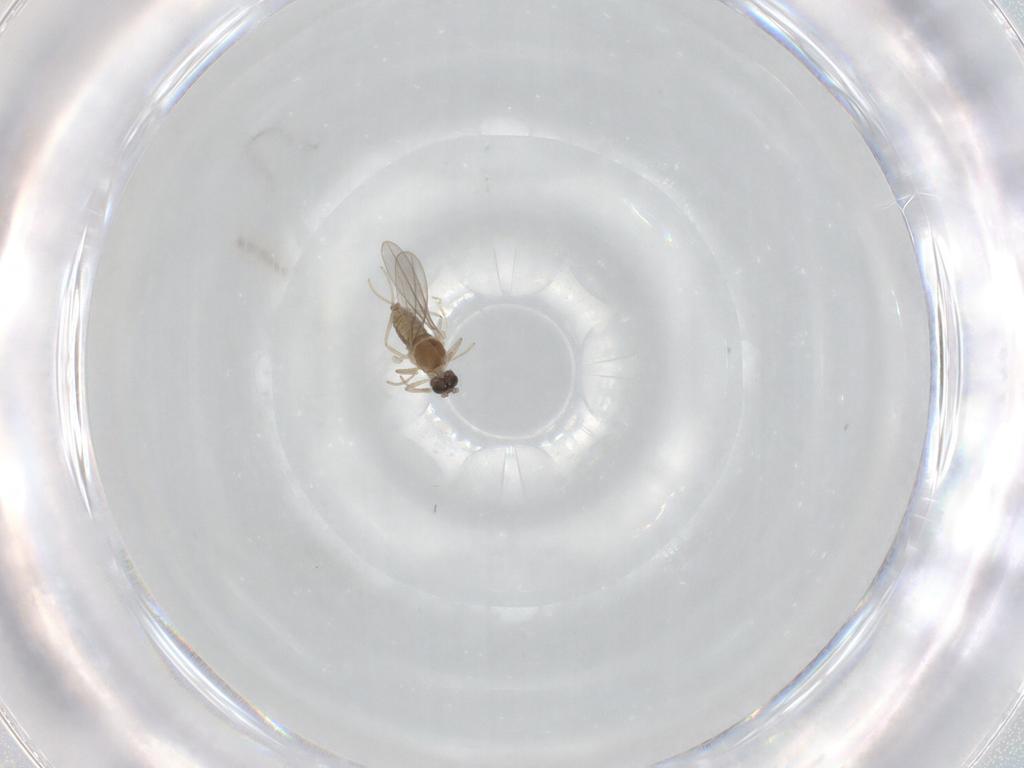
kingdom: Animalia
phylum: Arthropoda
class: Insecta
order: Diptera
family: Cecidomyiidae
